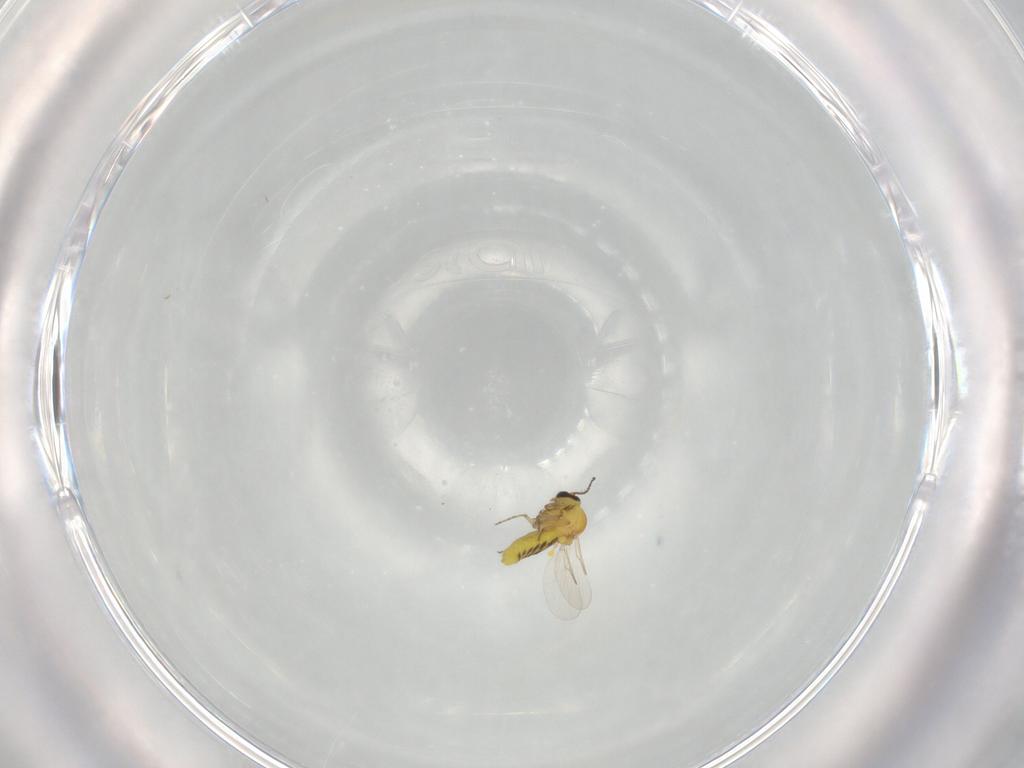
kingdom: Animalia
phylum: Arthropoda
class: Insecta
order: Diptera
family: Ceratopogonidae
